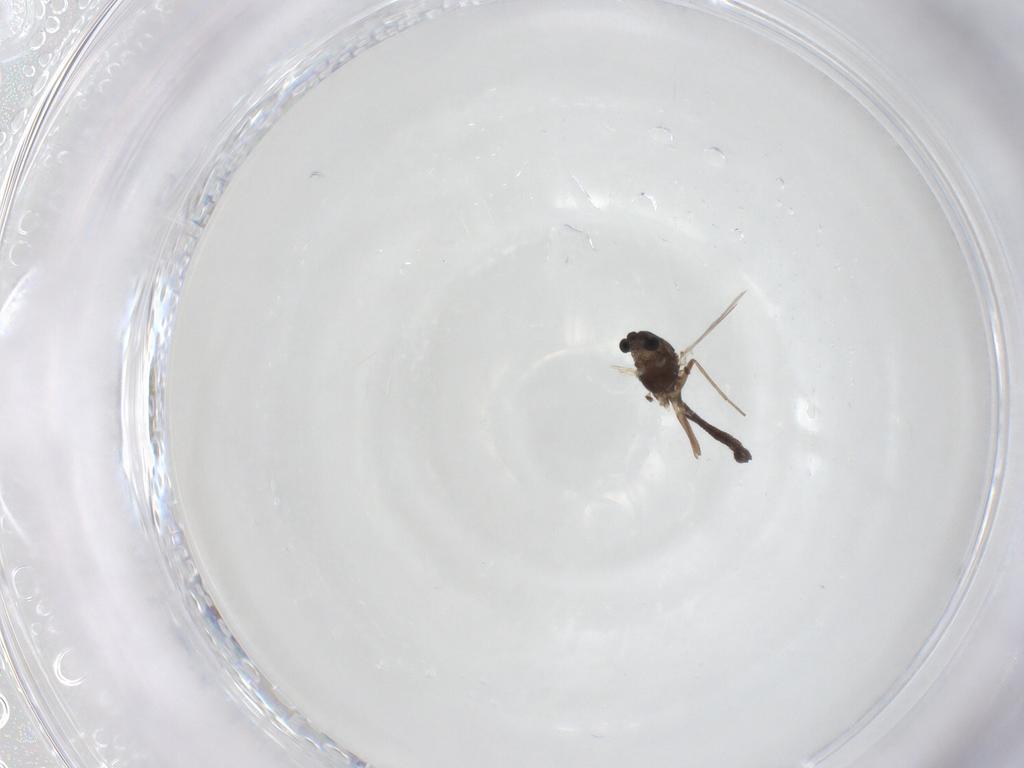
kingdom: Animalia
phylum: Arthropoda
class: Insecta
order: Diptera
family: Chironomidae
